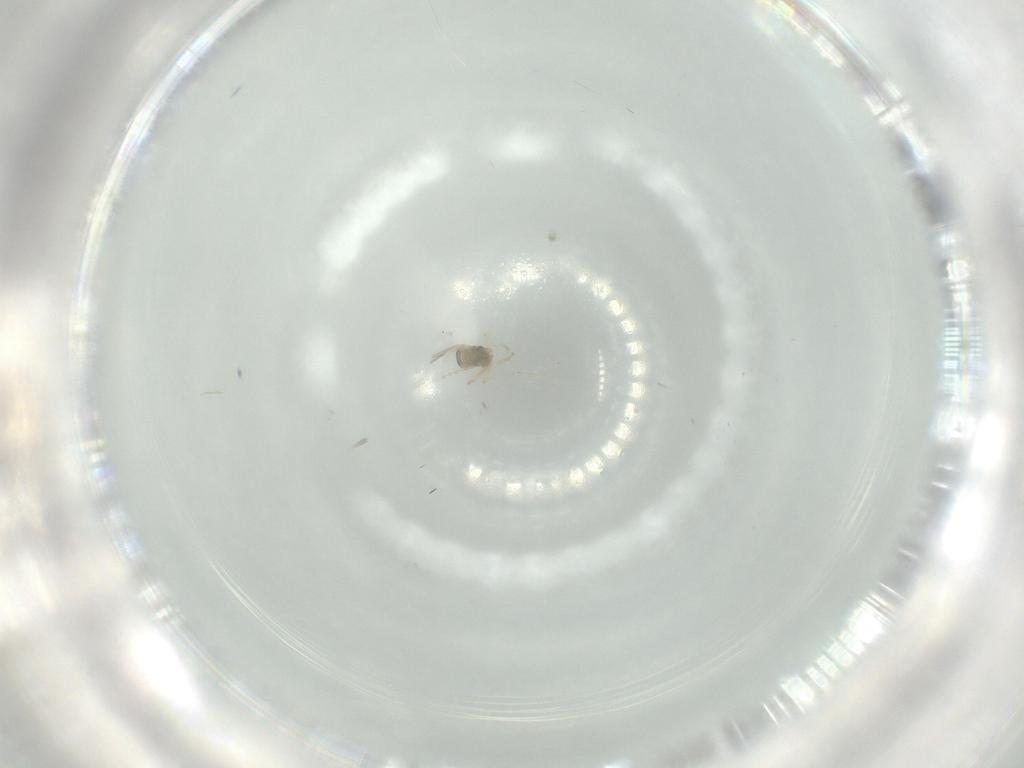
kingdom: Animalia
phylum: Arthropoda
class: Insecta
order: Diptera
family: Cecidomyiidae
